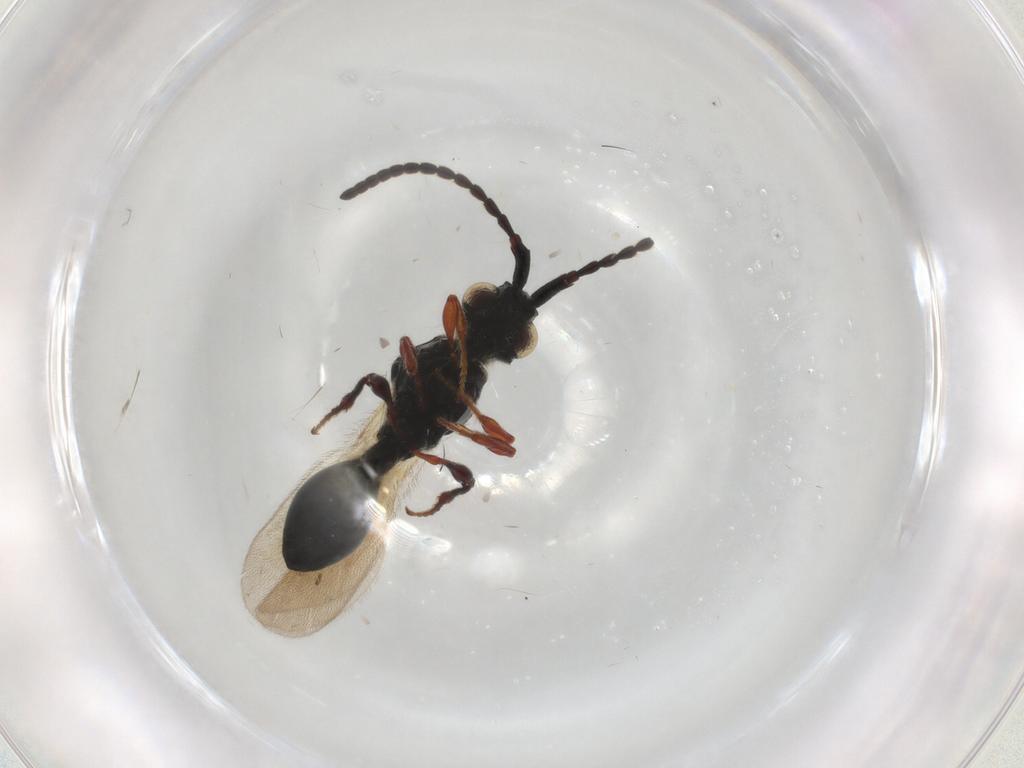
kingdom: Animalia
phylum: Arthropoda
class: Insecta
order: Hymenoptera
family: Diapriidae
